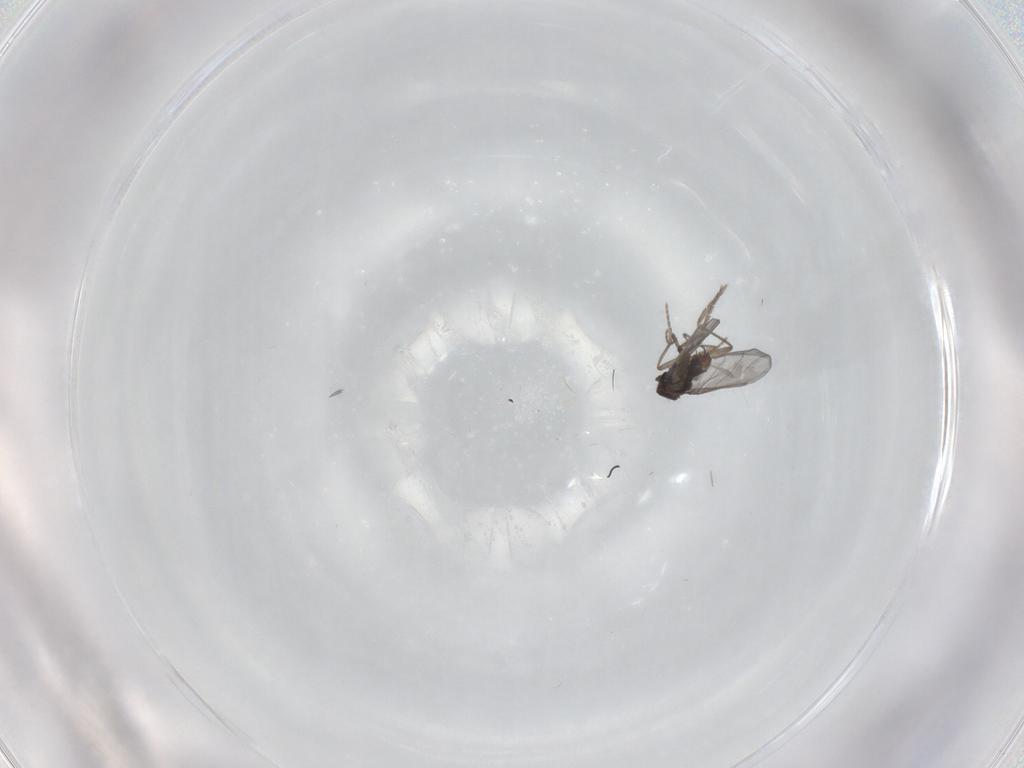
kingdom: Animalia
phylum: Arthropoda
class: Insecta
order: Diptera
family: Phoridae
